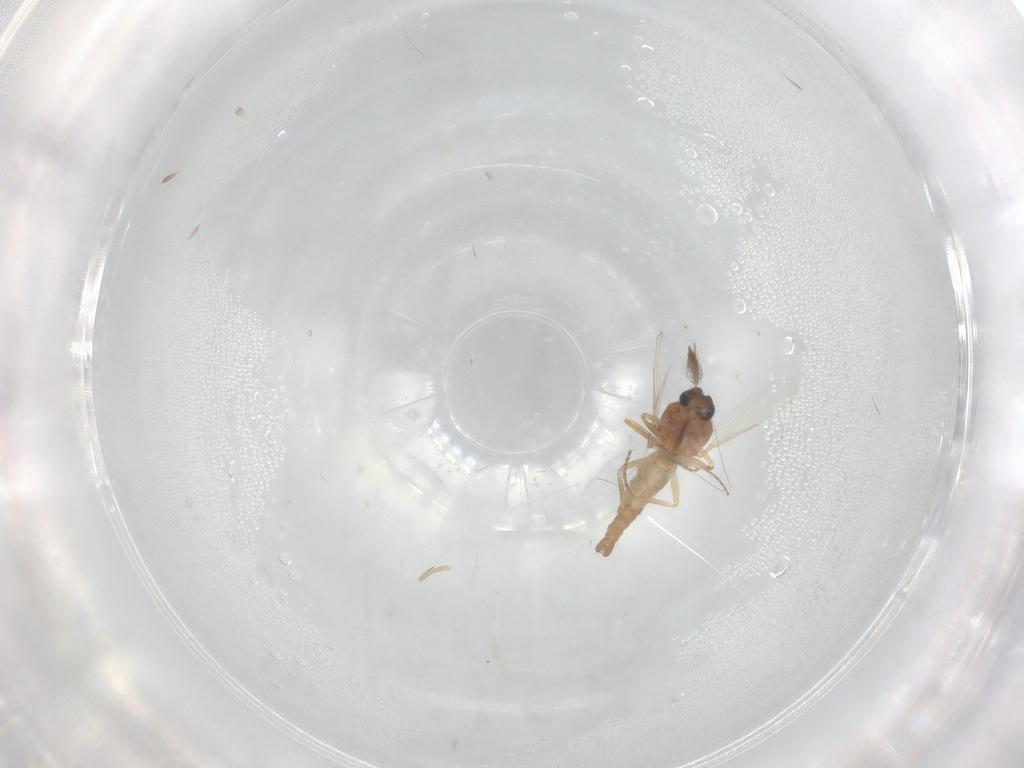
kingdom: Animalia
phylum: Arthropoda
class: Insecta
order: Diptera
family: Ceratopogonidae
